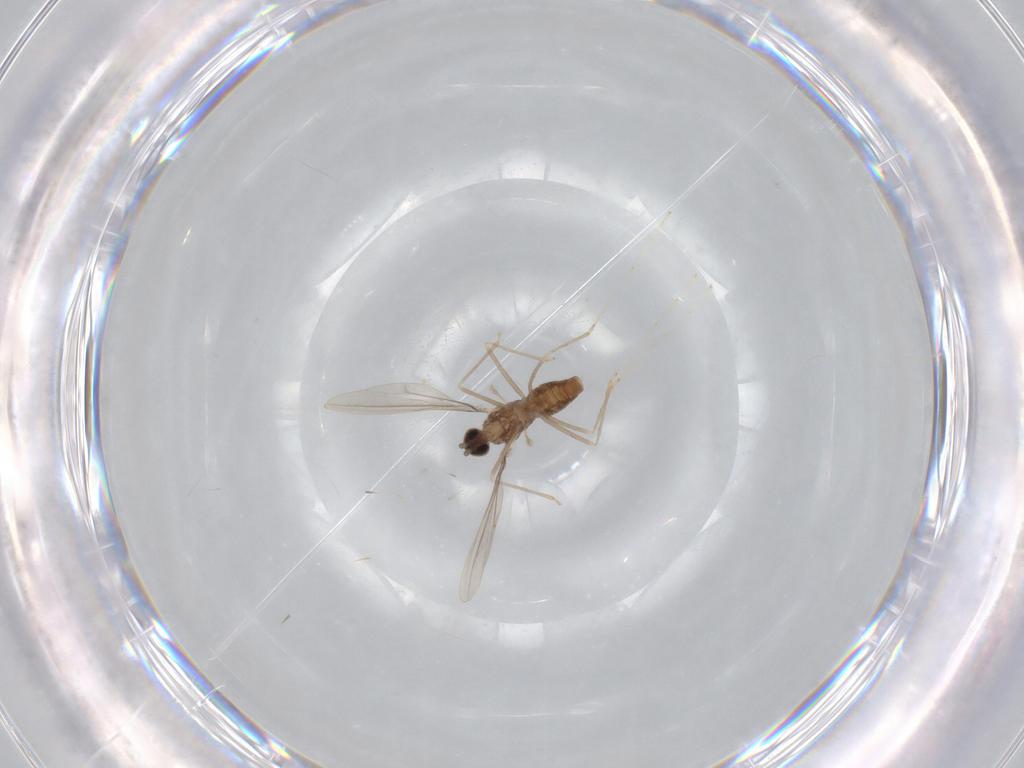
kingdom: Animalia
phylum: Arthropoda
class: Insecta
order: Diptera
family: Cecidomyiidae
